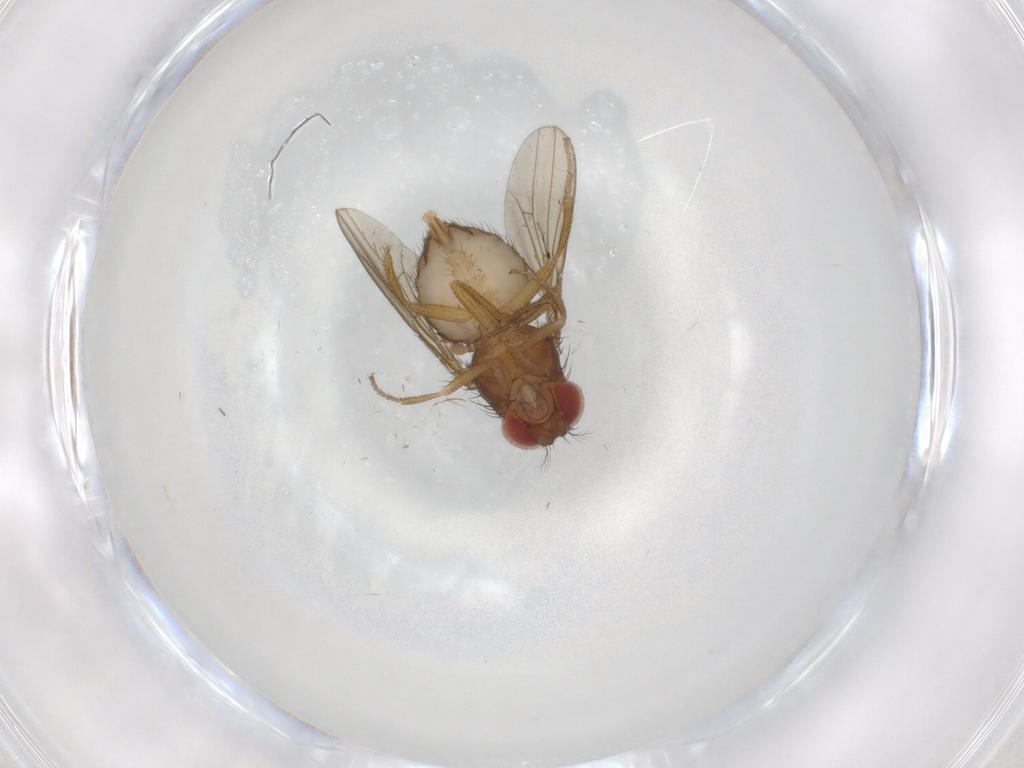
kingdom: Animalia
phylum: Arthropoda
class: Insecta
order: Diptera
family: Drosophilidae
